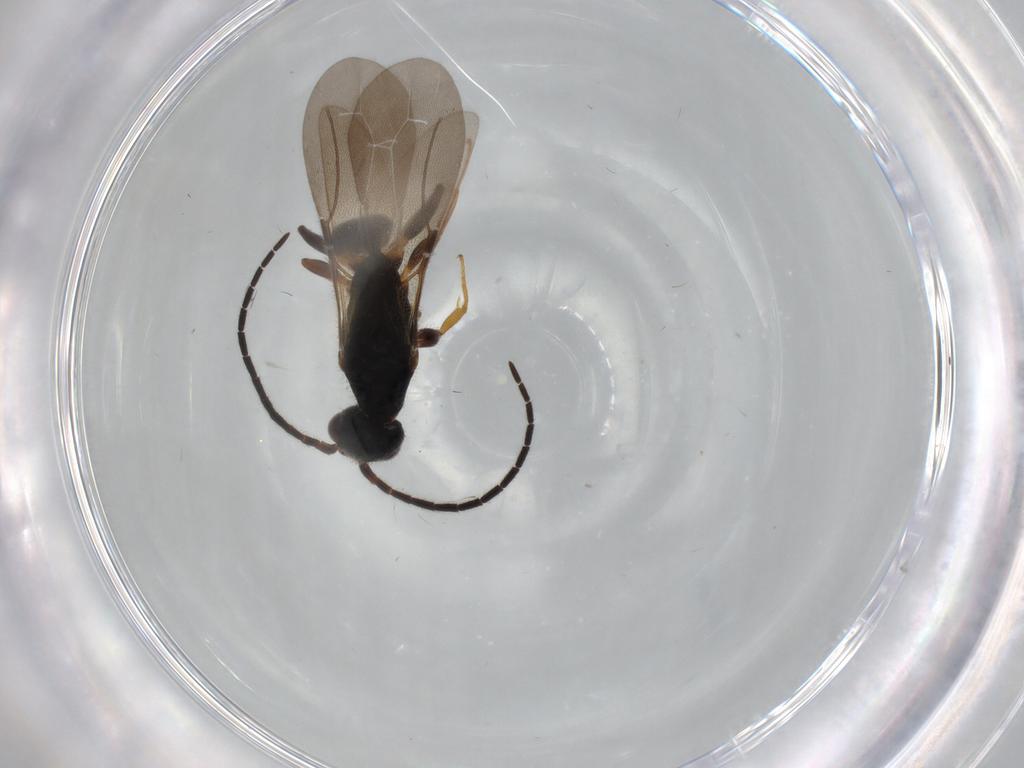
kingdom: Animalia
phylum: Arthropoda
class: Insecta
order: Hymenoptera
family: Bethylidae
